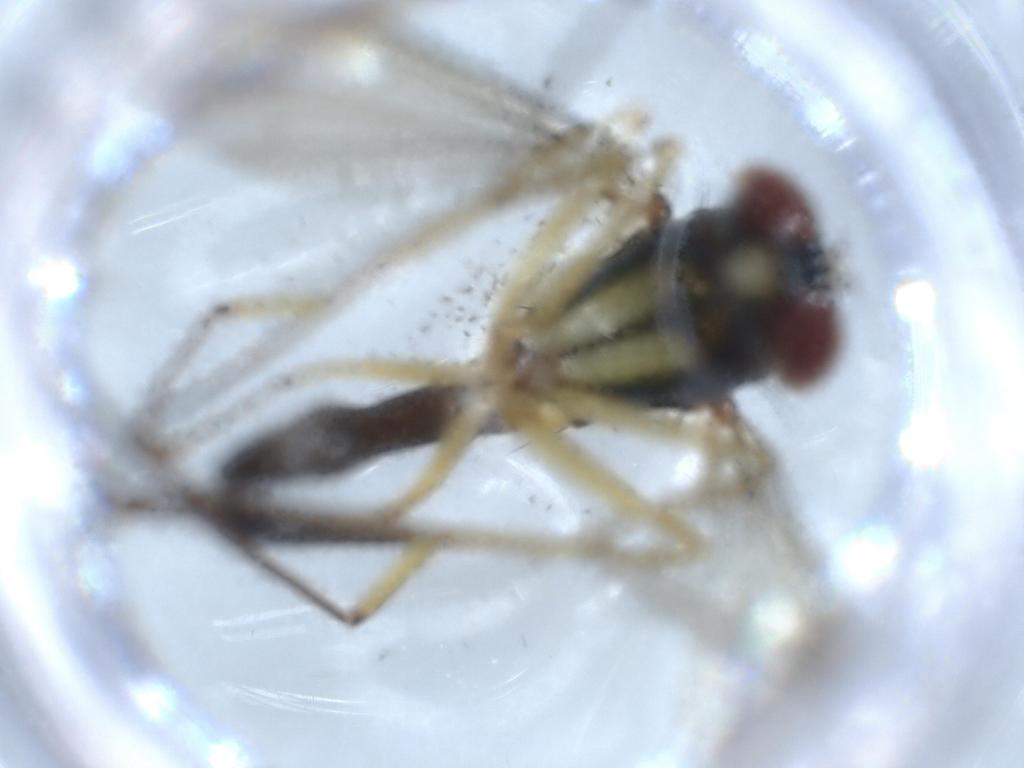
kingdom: Animalia
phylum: Arthropoda
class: Insecta
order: Diptera
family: Dolichopodidae
